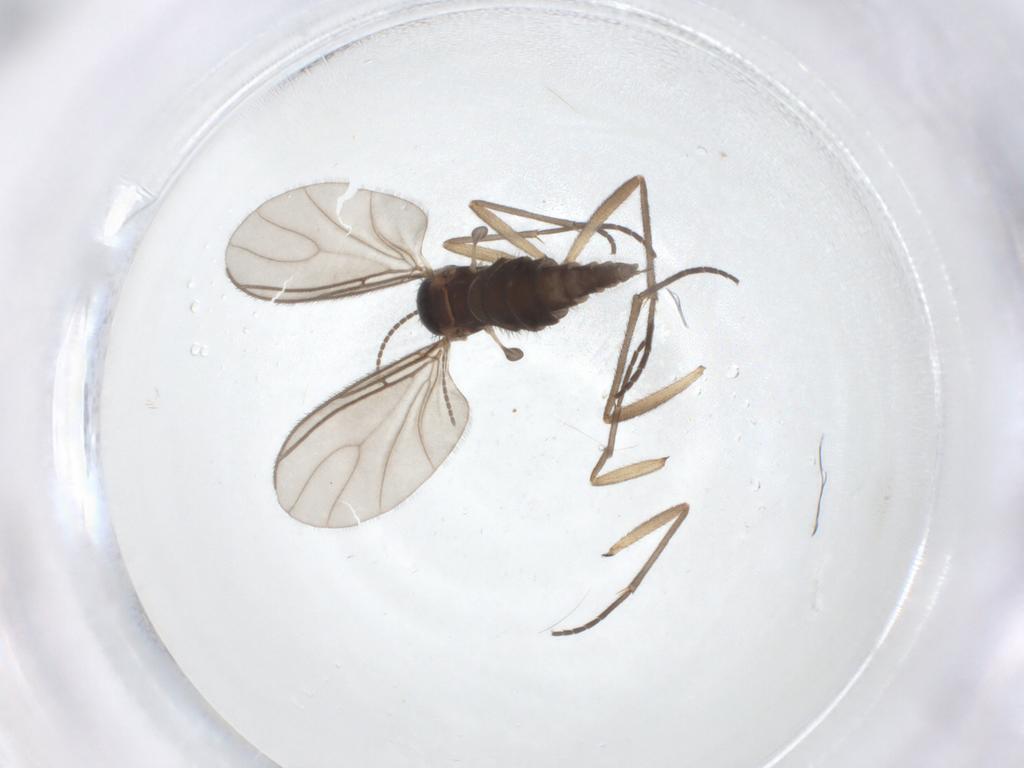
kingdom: Animalia
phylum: Arthropoda
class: Insecta
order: Diptera
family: Sciaridae
